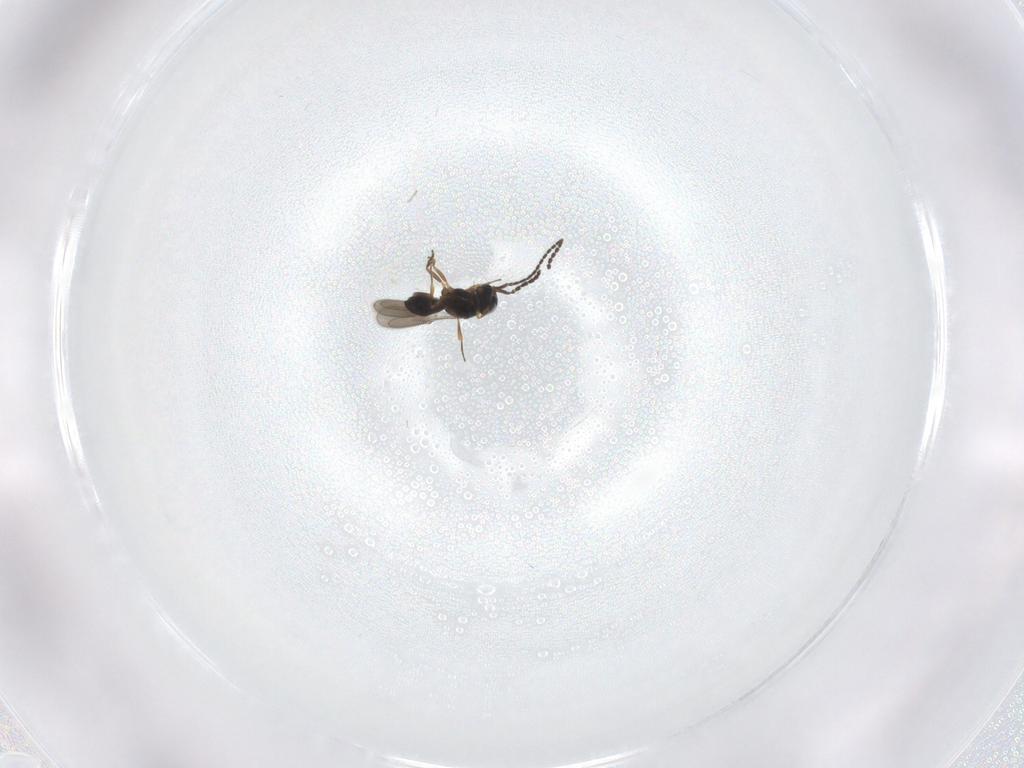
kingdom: Animalia
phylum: Arthropoda
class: Insecta
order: Hymenoptera
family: Scelionidae
